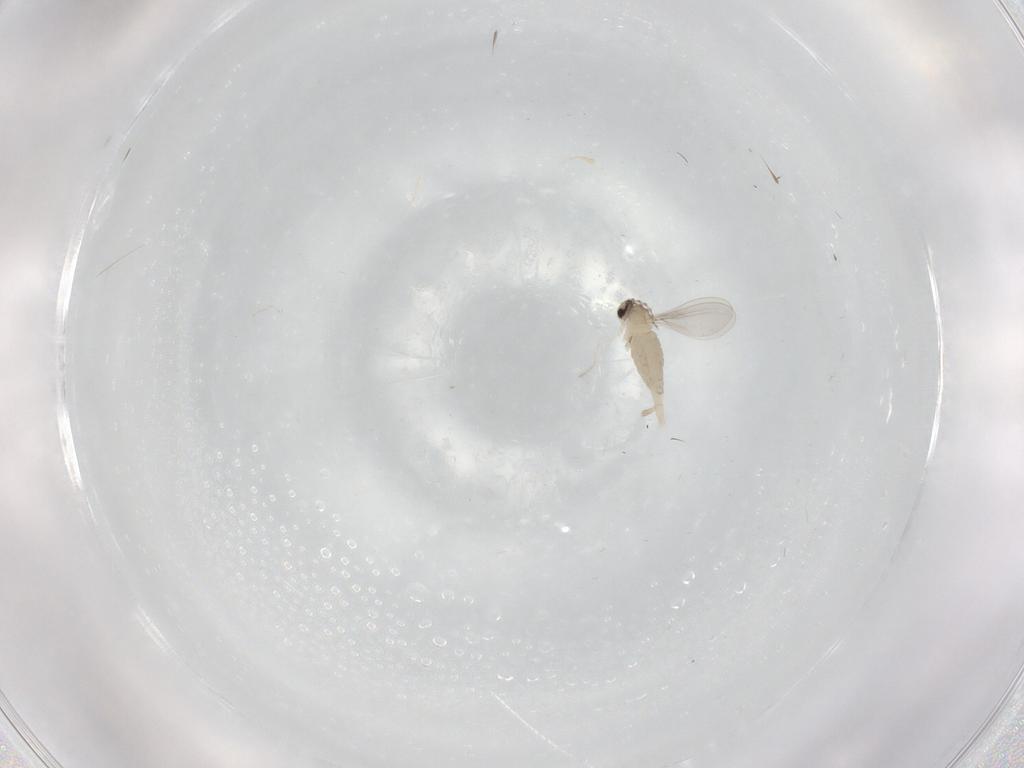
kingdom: Animalia
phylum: Arthropoda
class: Insecta
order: Diptera
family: Cecidomyiidae
